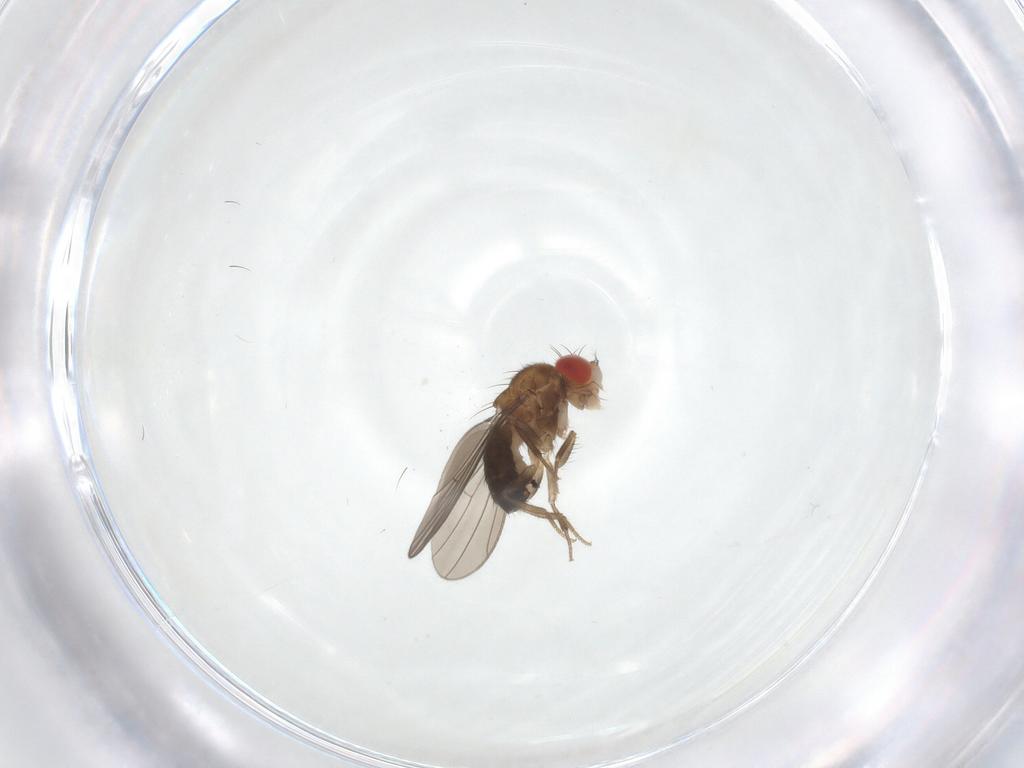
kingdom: Animalia
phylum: Arthropoda
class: Insecta
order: Diptera
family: Drosophilidae
